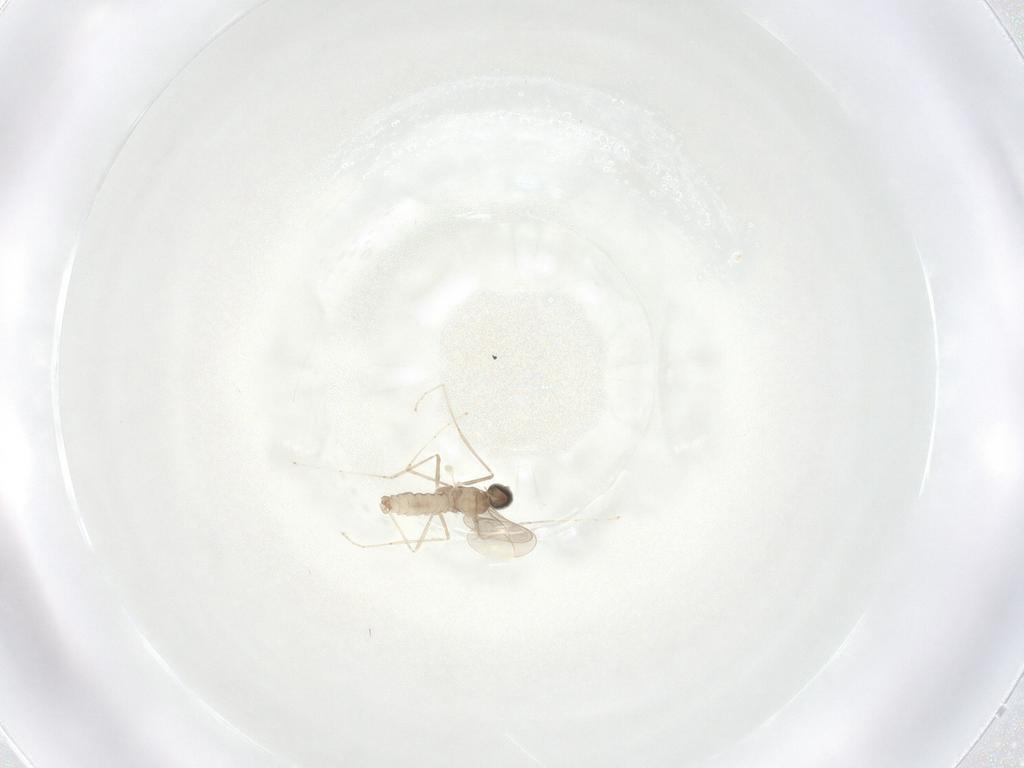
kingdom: Animalia
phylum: Arthropoda
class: Insecta
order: Diptera
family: Cecidomyiidae
